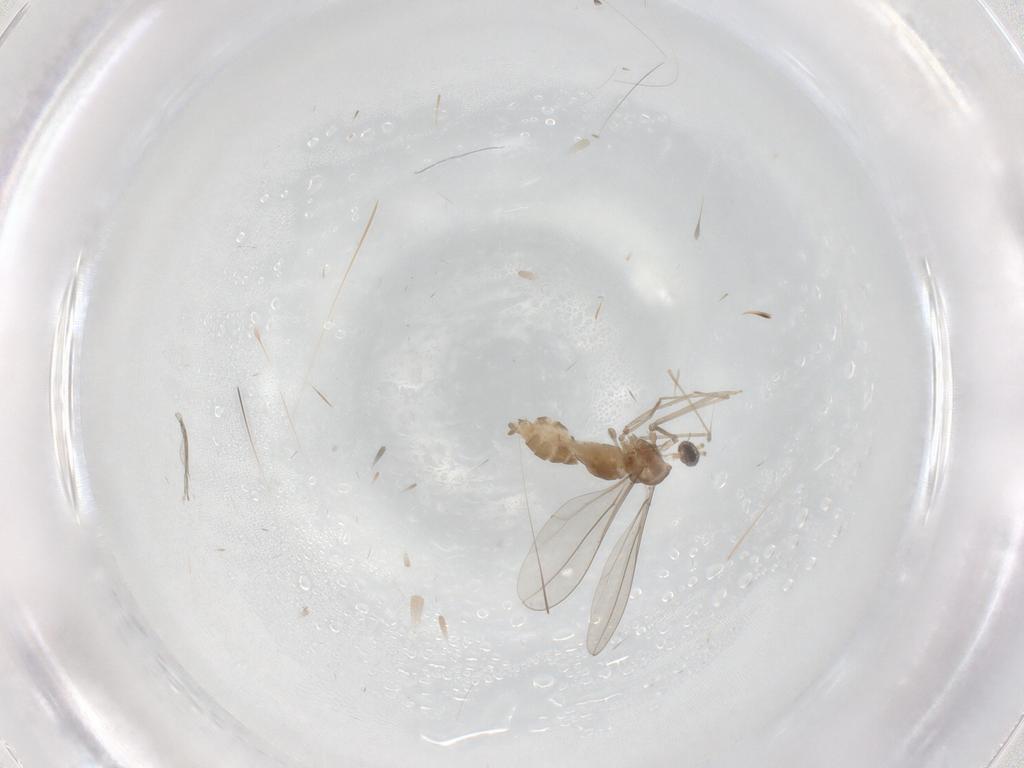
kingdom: Animalia
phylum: Arthropoda
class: Insecta
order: Diptera
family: Cecidomyiidae
